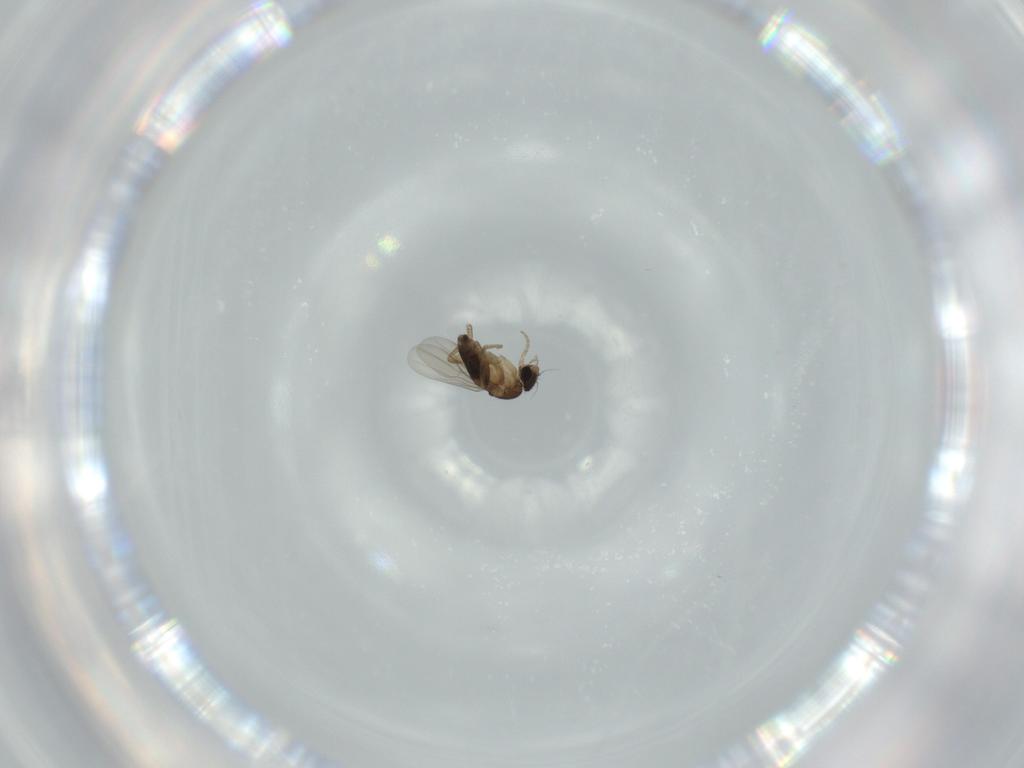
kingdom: Animalia
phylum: Arthropoda
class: Insecta
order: Diptera
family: Phoridae
